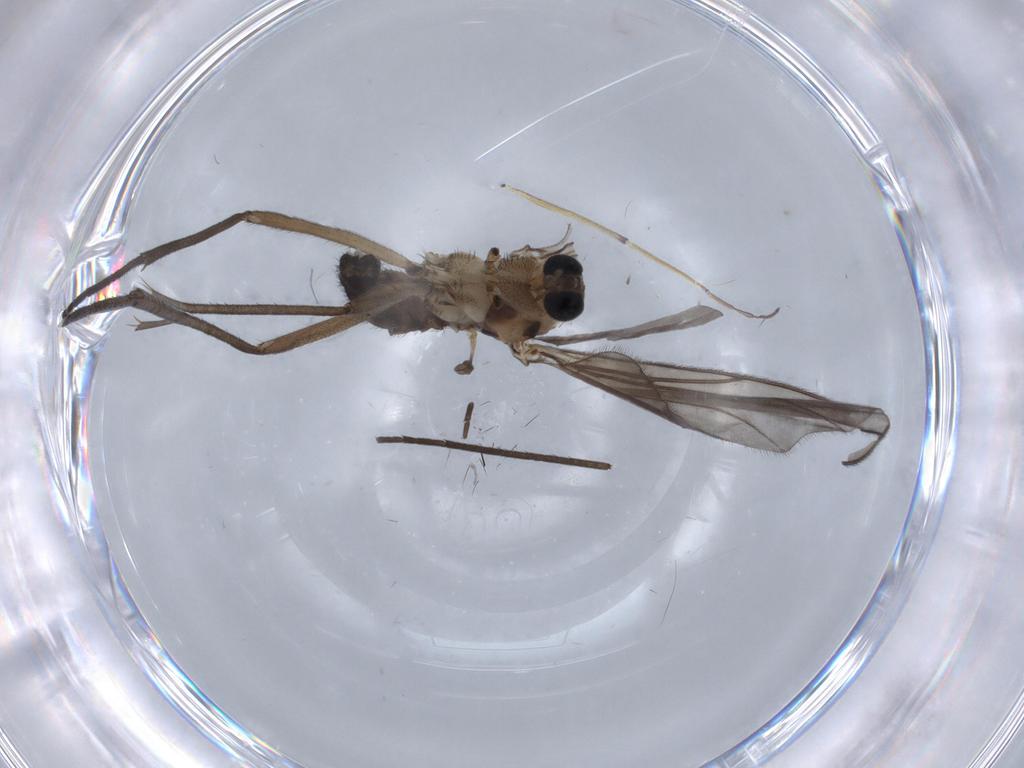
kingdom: Animalia
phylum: Arthropoda
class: Insecta
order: Diptera
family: Sciaridae
